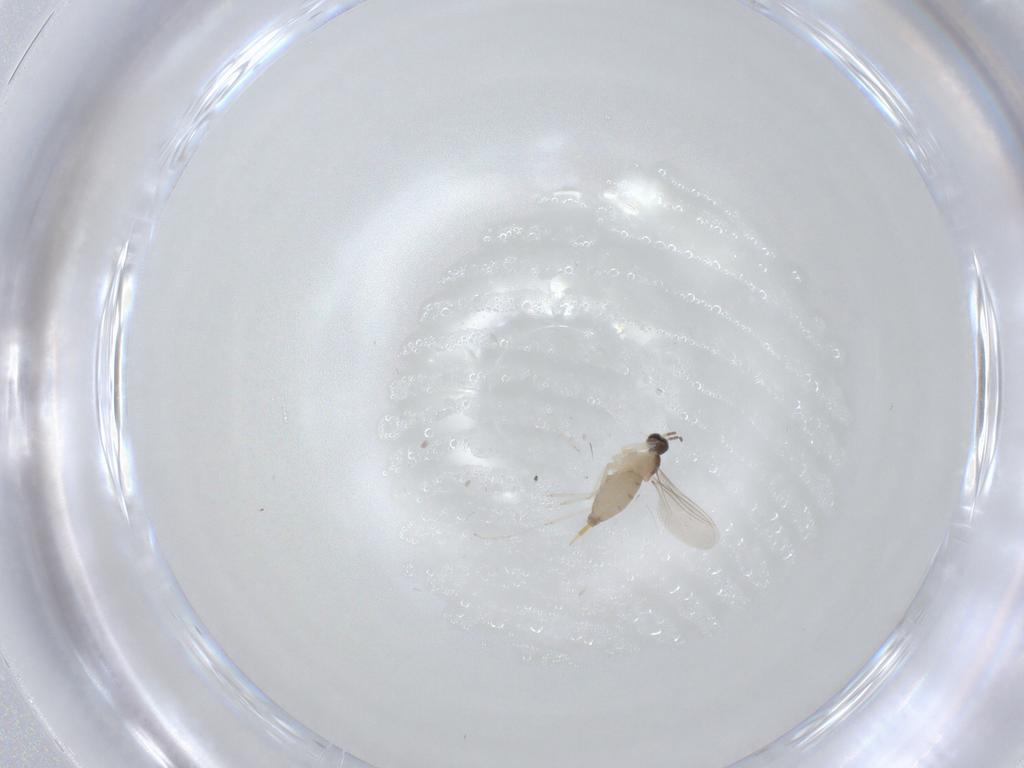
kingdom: Animalia
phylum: Arthropoda
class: Insecta
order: Diptera
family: Cecidomyiidae
